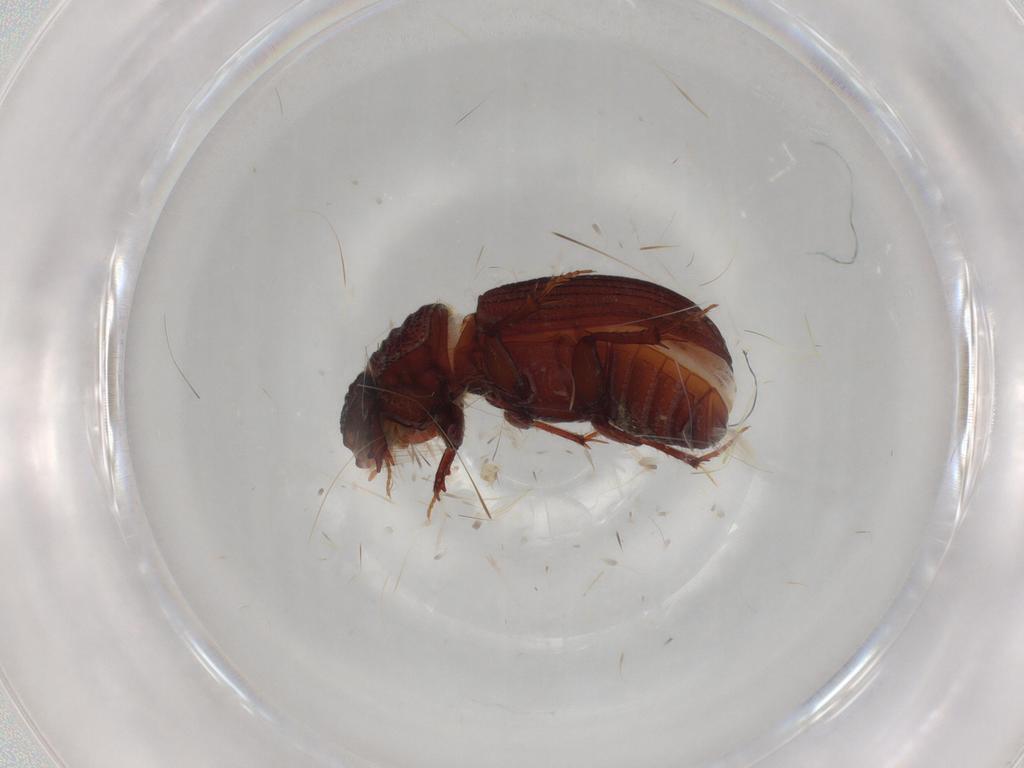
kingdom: Animalia
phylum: Arthropoda
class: Insecta
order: Coleoptera
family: Scarabaeidae
